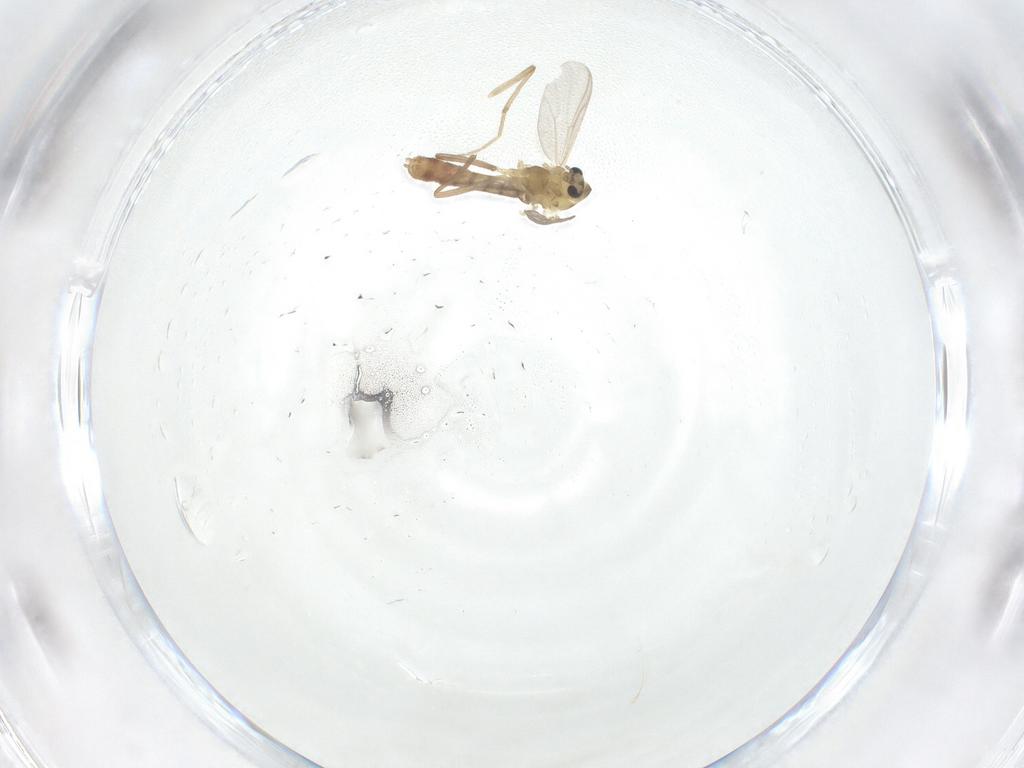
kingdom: Animalia
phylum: Arthropoda
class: Insecta
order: Diptera
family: Chironomidae
